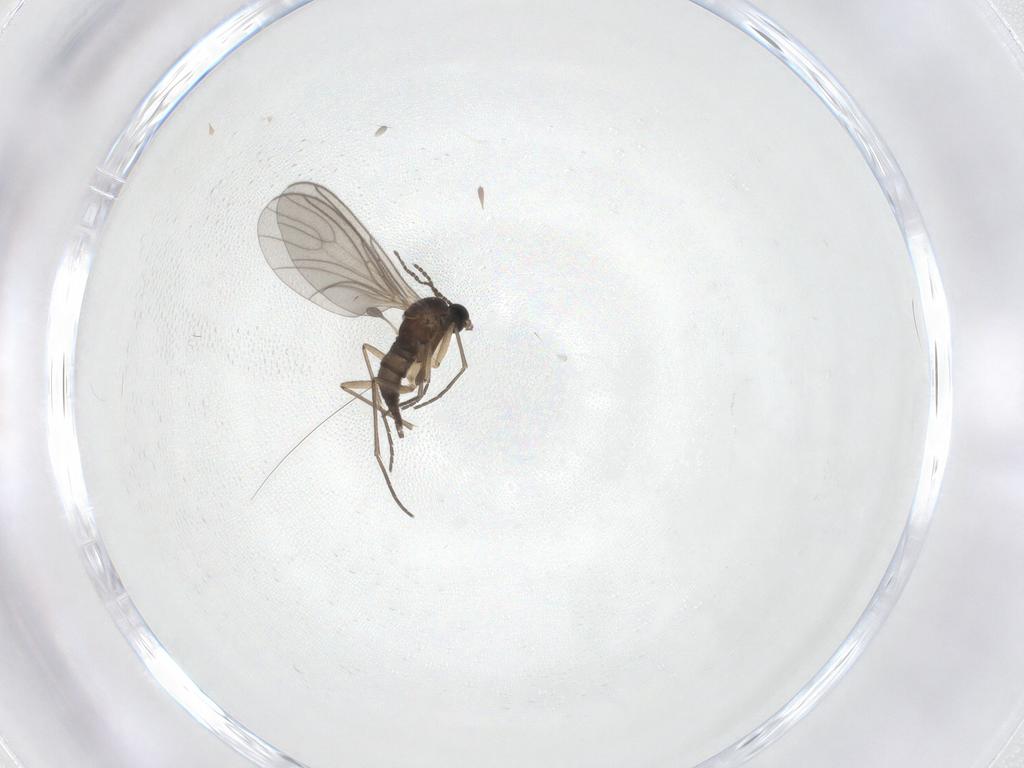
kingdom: Animalia
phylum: Arthropoda
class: Insecta
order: Diptera
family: Sciaridae
